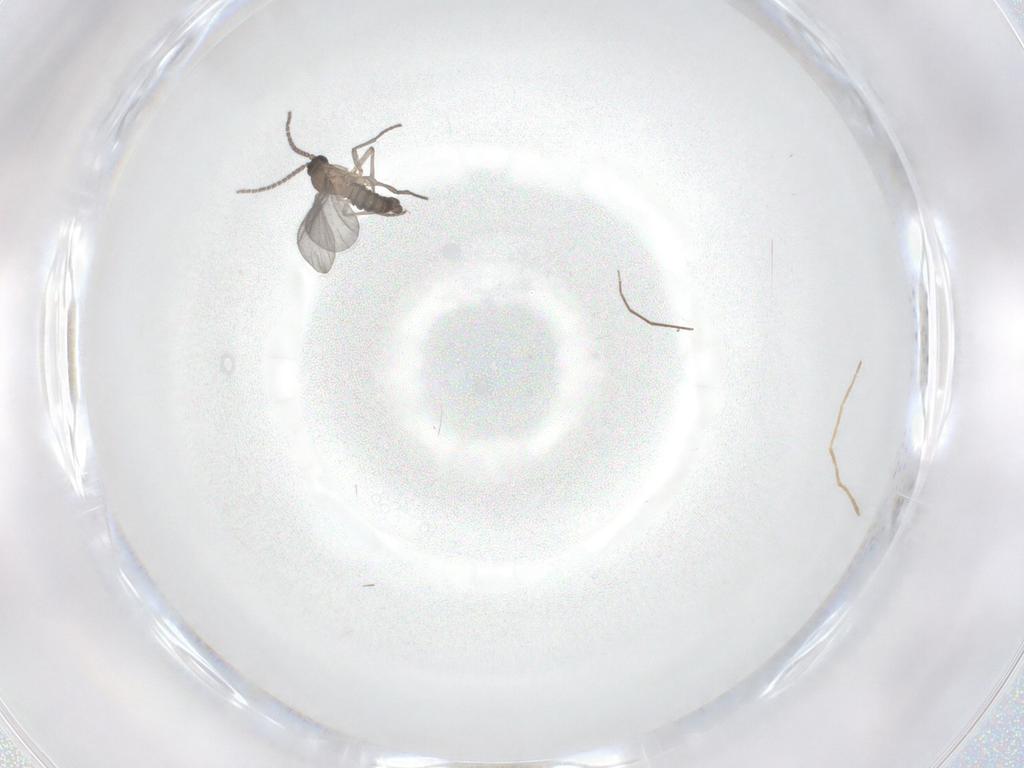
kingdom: Animalia
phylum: Arthropoda
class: Insecta
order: Diptera
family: Sciaridae
